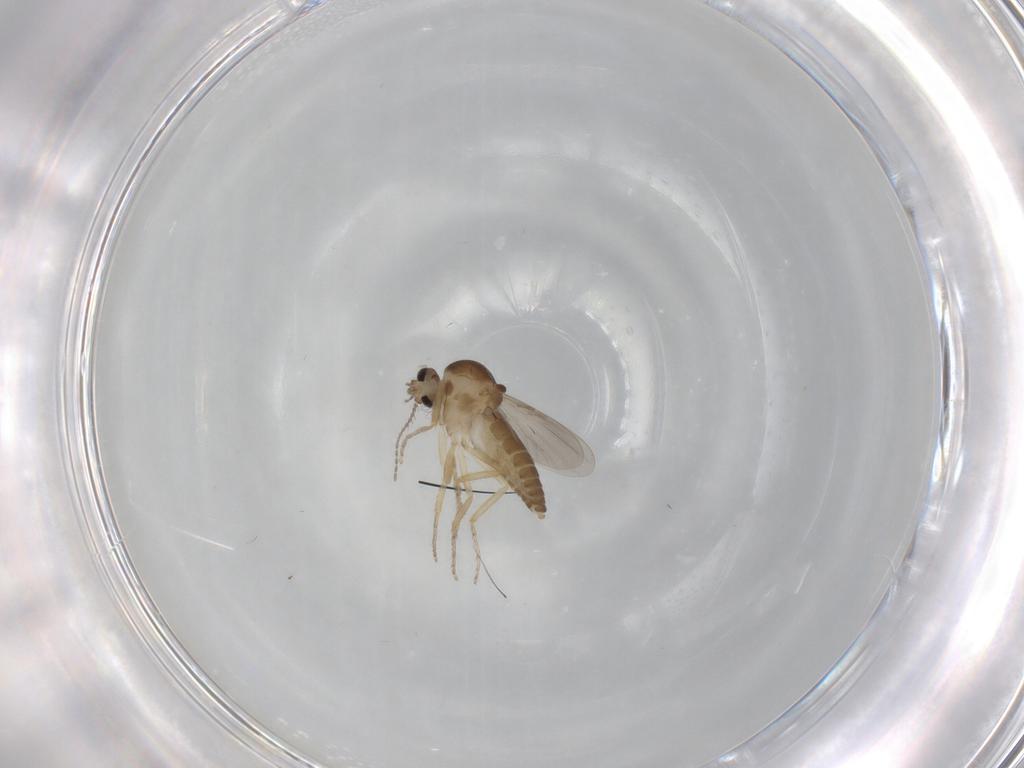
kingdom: Animalia
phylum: Arthropoda
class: Insecta
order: Diptera
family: Ceratopogonidae
